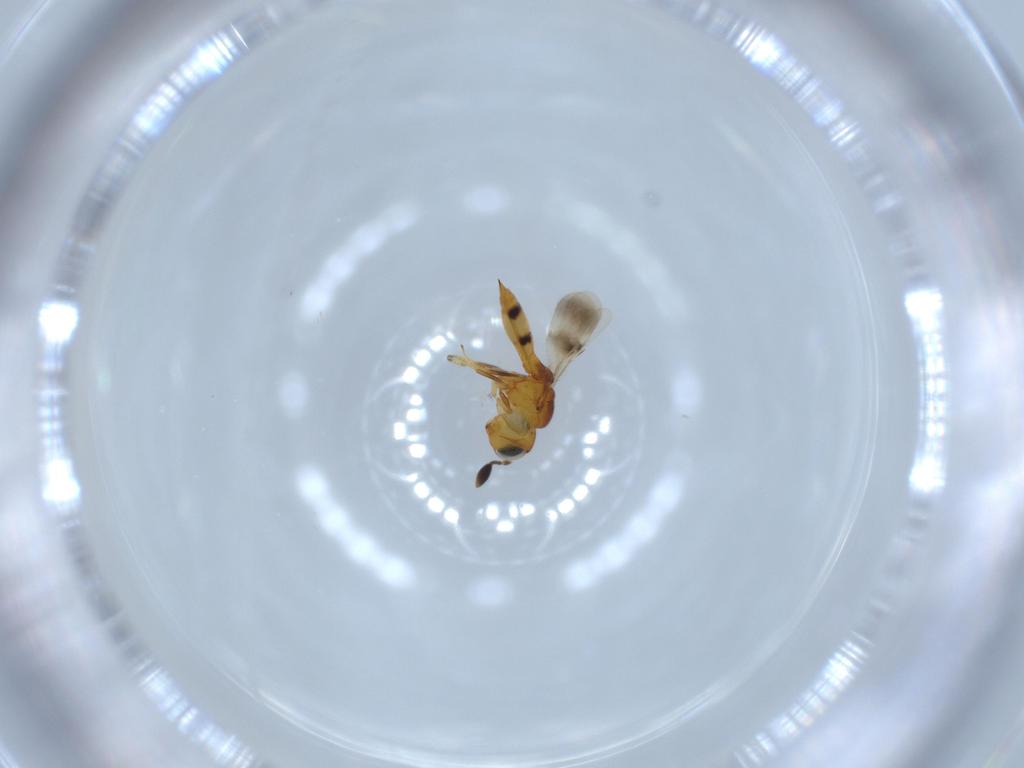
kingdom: Animalia
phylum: Arthropoda
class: Insecta
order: Hymenoptera
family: Scelionidae
